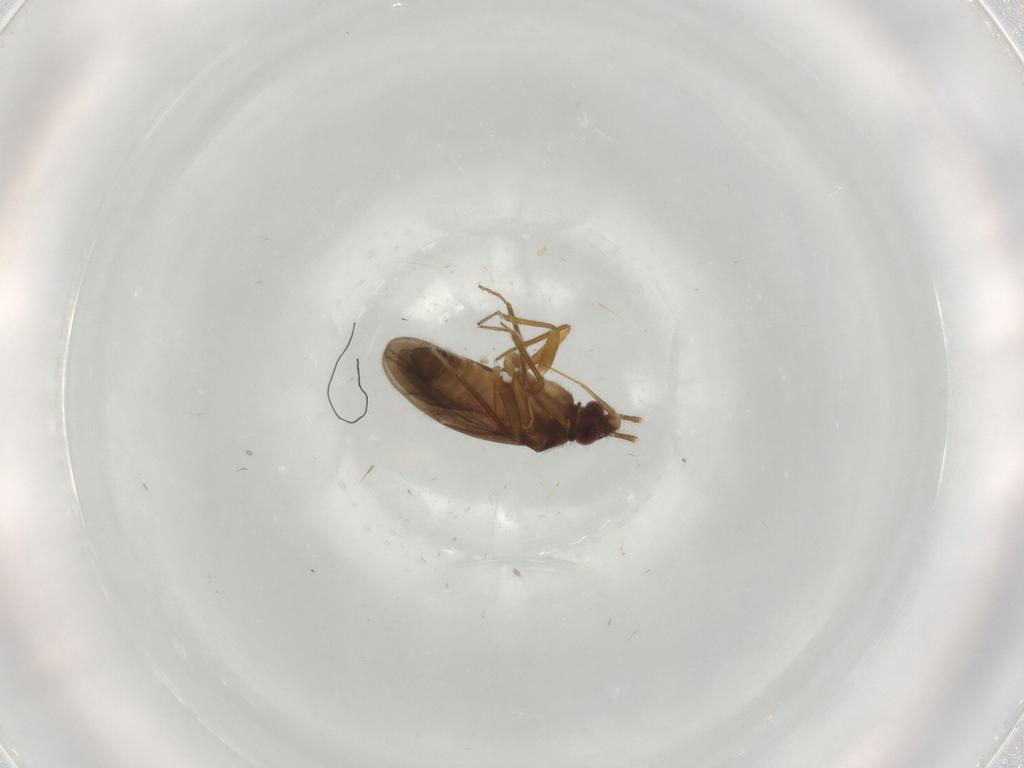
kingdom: Animalia
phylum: Arthropoda
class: Insecta
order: Hemiptera
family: Ceratocombidae
